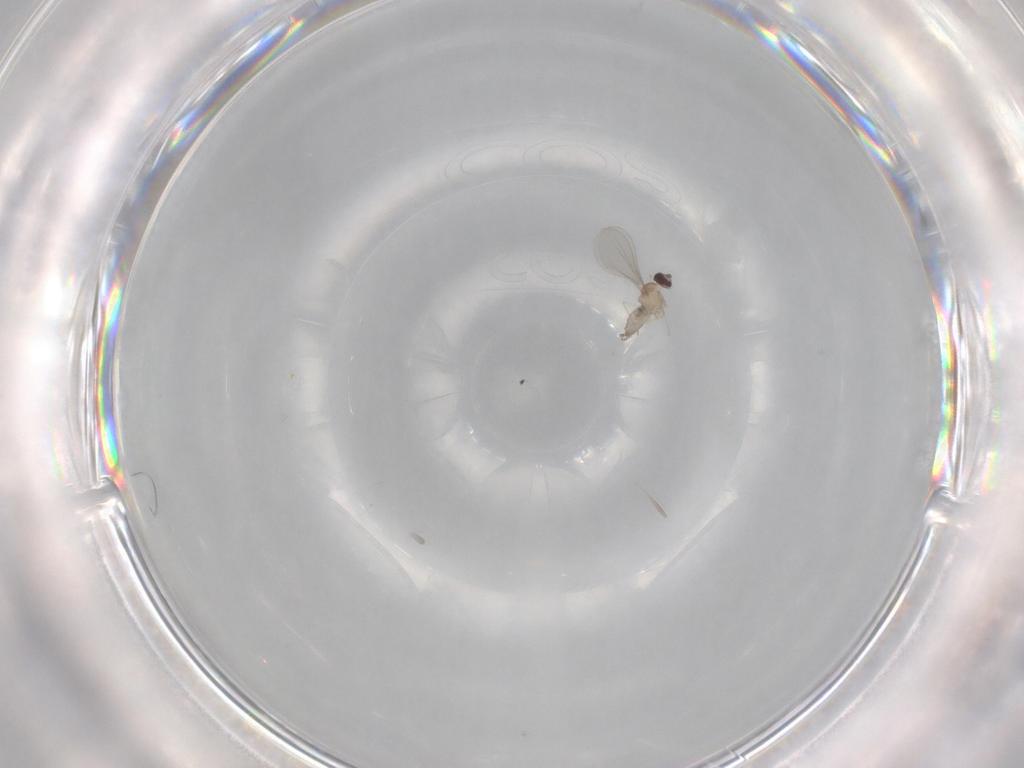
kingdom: Animalia
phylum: Arthropoda
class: Insecta
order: Diptera
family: Cecidomyiidae
